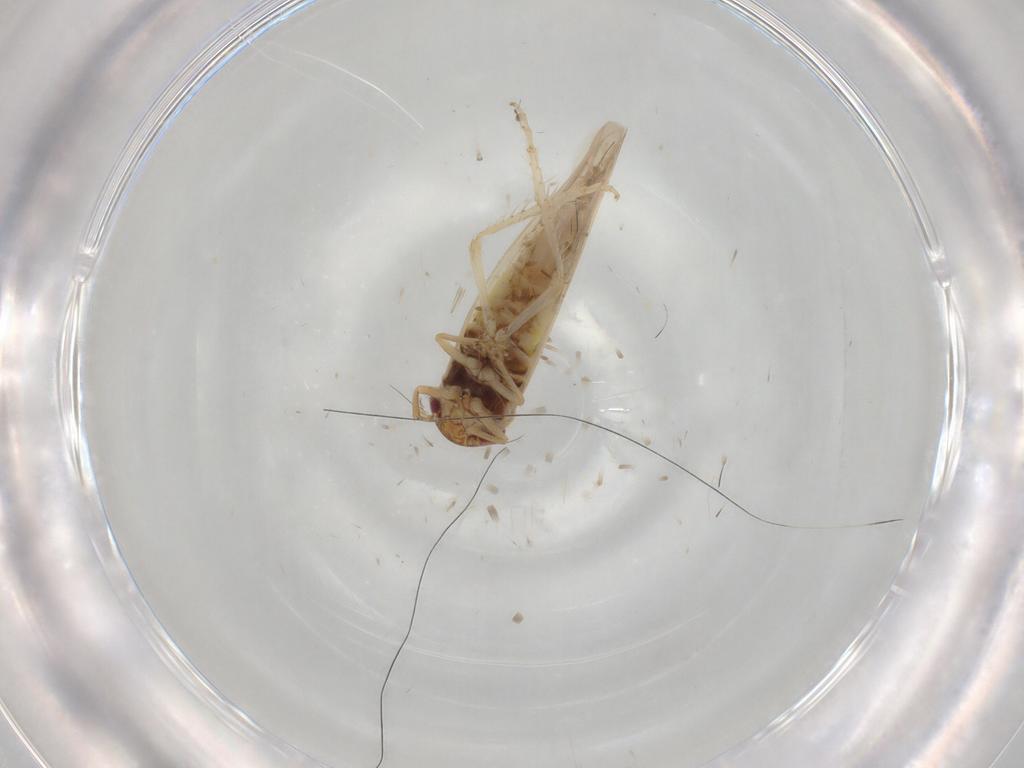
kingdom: Animalia
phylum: Arthropoda
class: Insecta
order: Hemiptera
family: Cicadellidae
